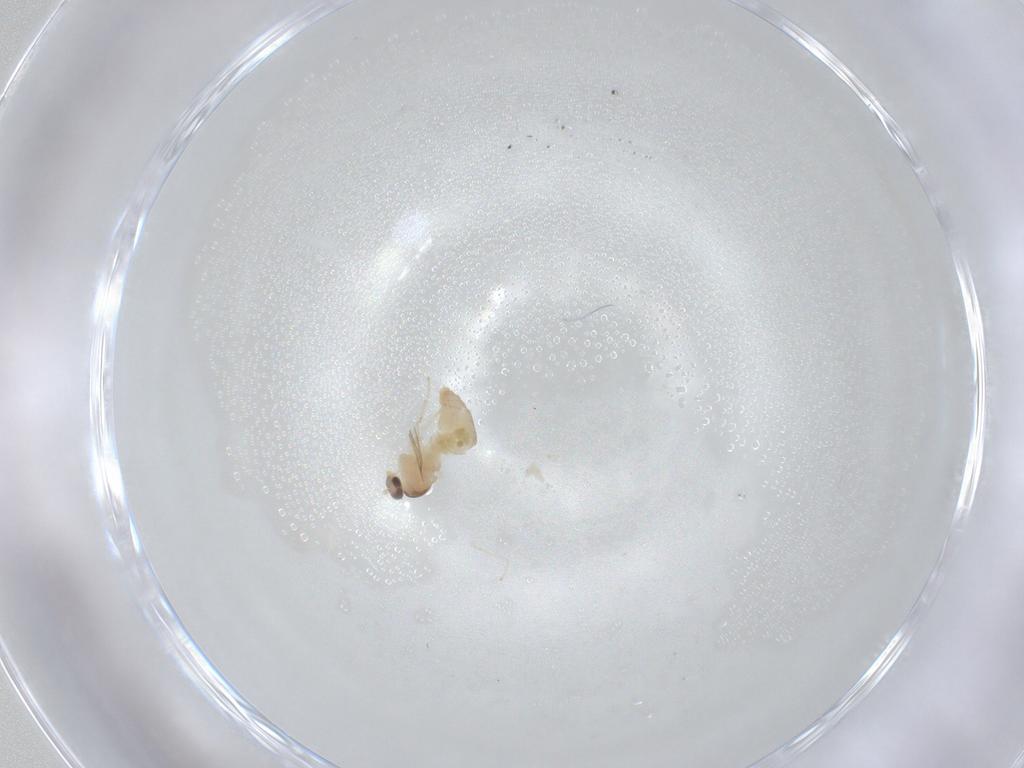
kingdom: Animalia
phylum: Arthropoda
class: Insecta
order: Diptera
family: Cecidomyiidae
